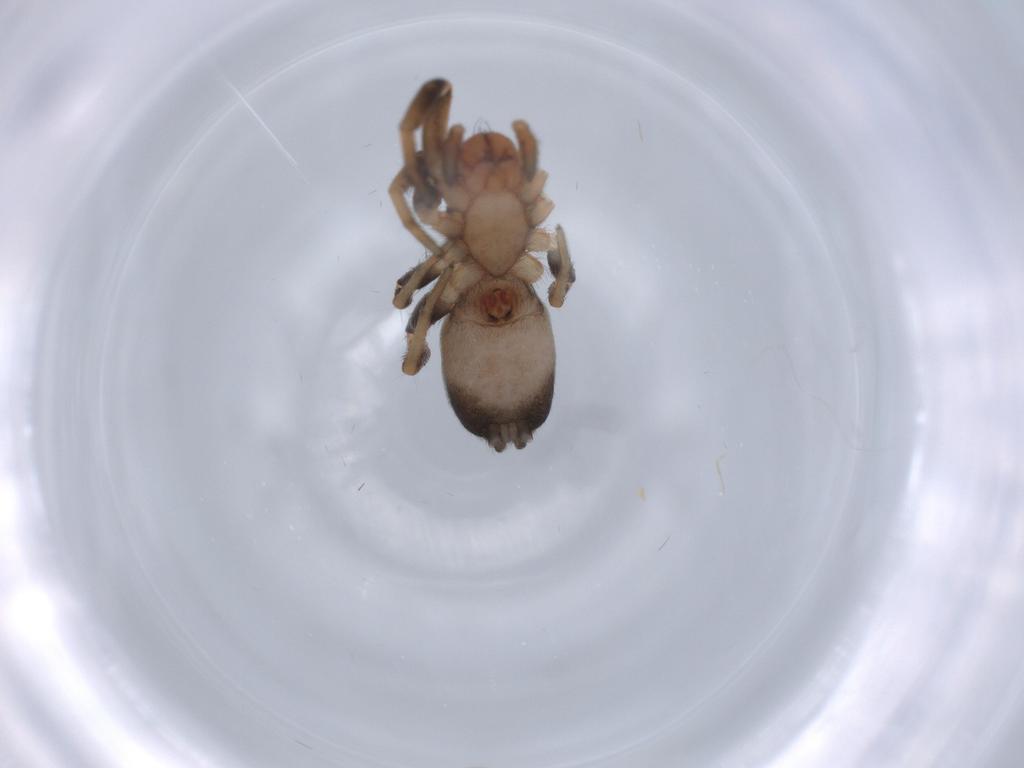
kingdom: Animalia
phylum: Arthropoda
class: Arachnida
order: Araneae
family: Gnaphosidae
